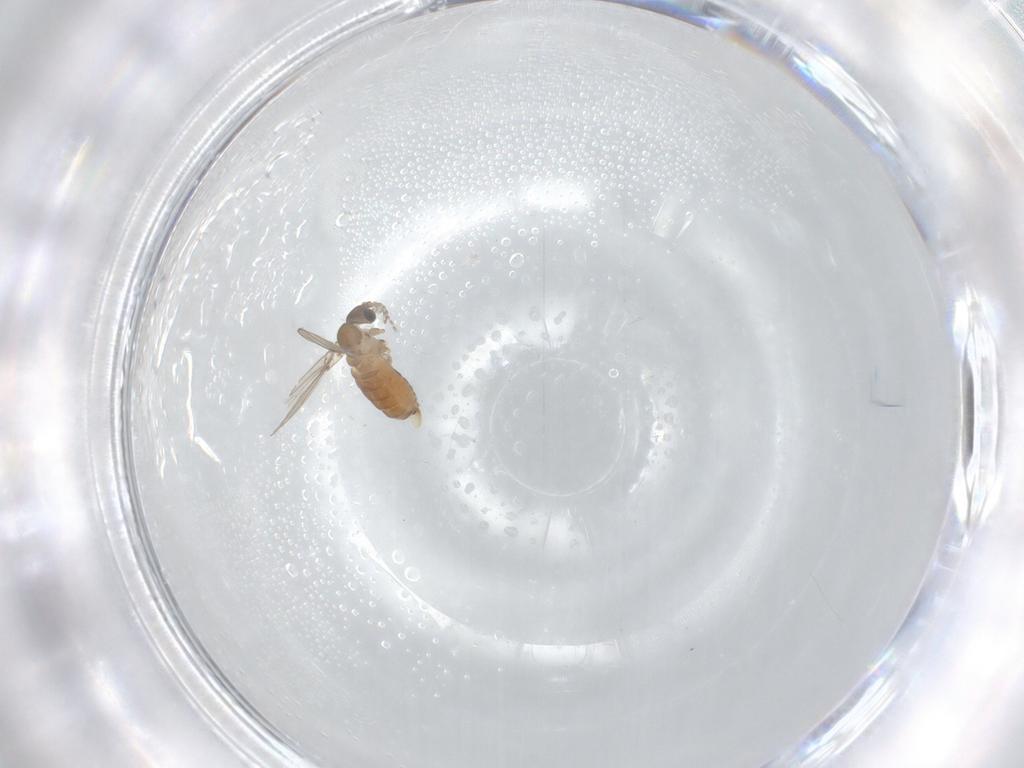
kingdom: Animalia
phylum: Arthropoda
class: Insecta
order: Diptera
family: Psychodidae
